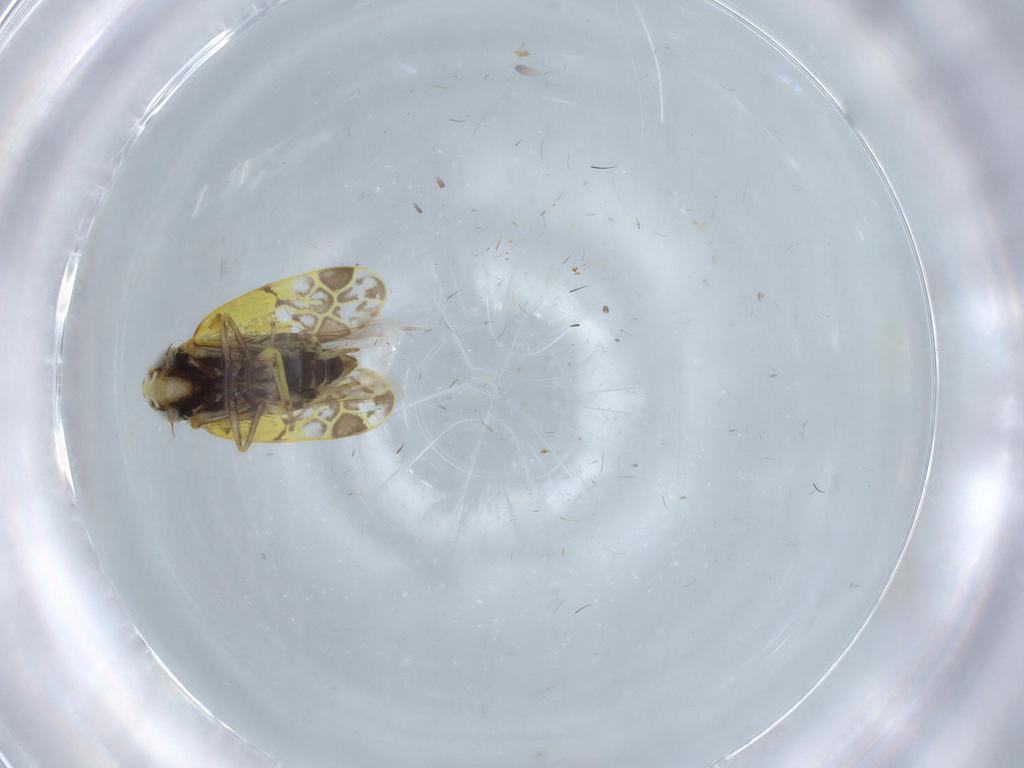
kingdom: Animalia
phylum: Arthropoda
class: Insecta
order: Hemiptera
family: Cicadellidae
